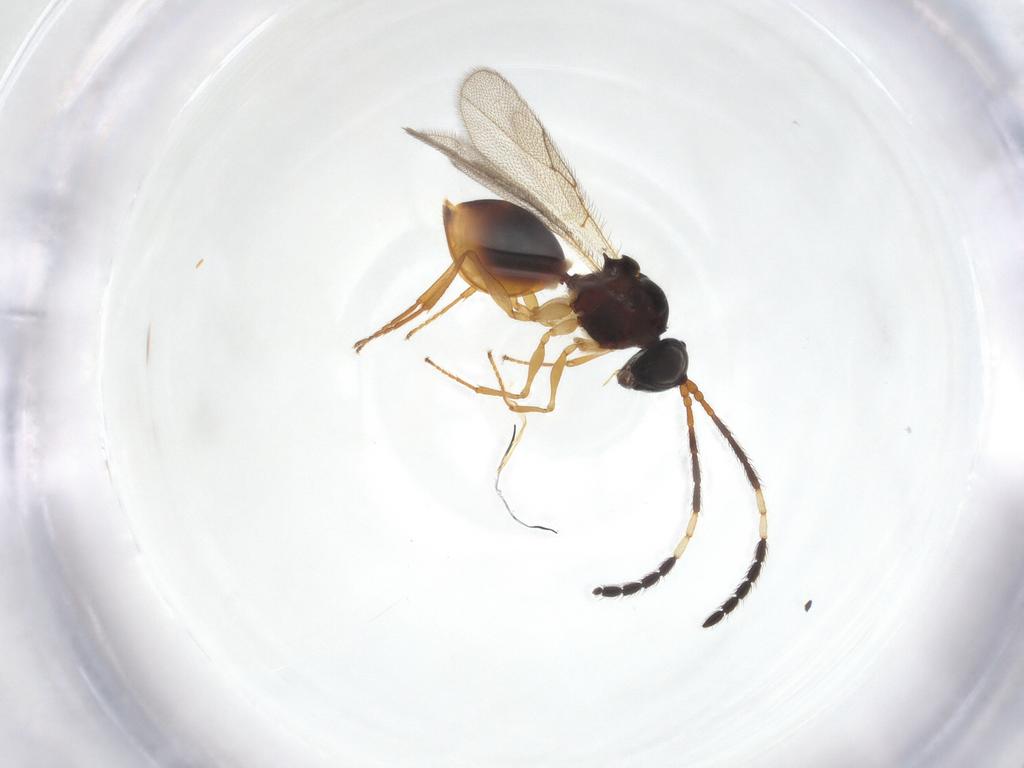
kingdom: Animalia
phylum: Arthropoda
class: Insecta
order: Hymenoptera
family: Figitidae
